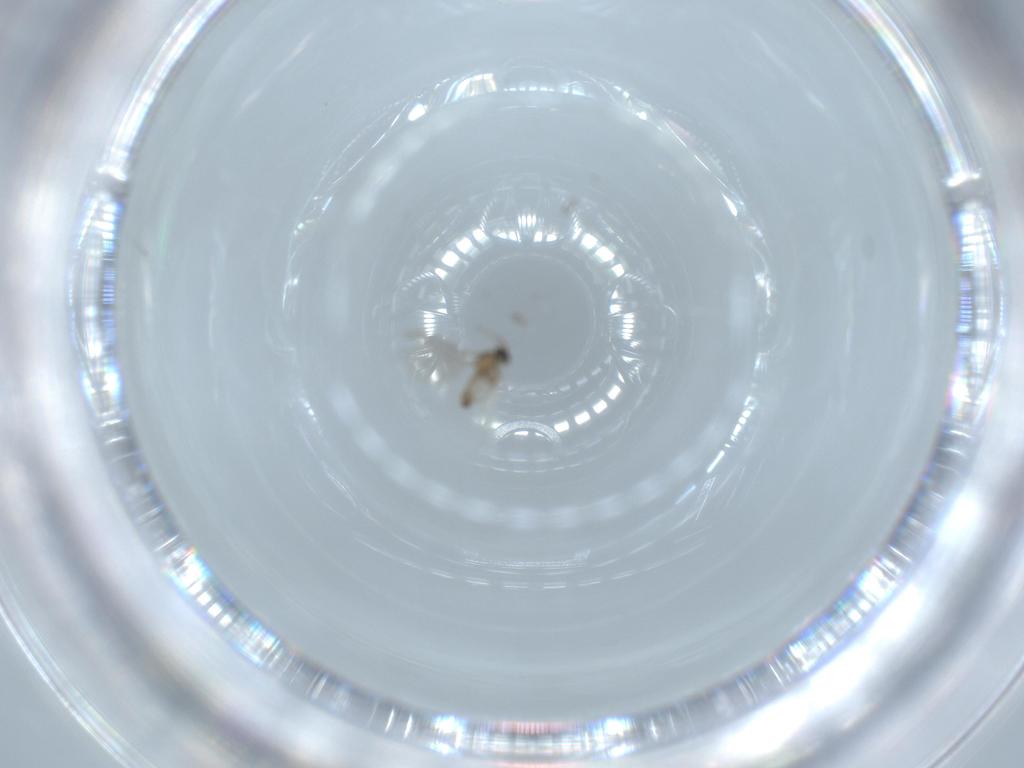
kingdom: Animalia
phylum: Arthropoda
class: Insecta
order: Diptera
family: Cecidomyiidae
